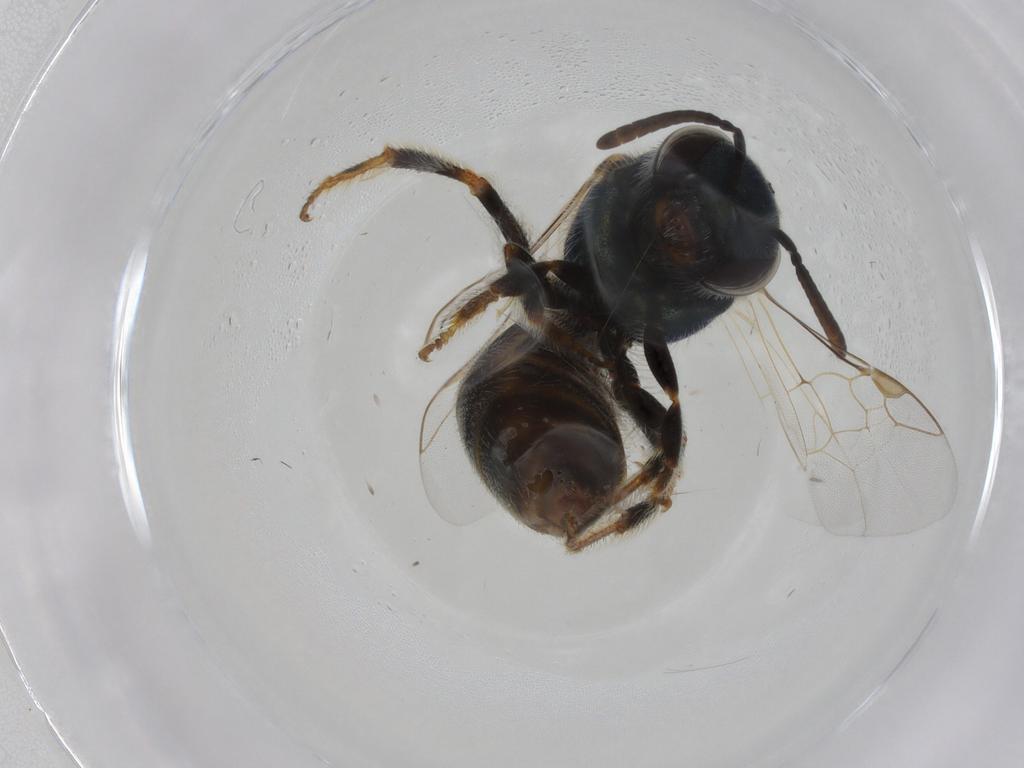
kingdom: Animalia
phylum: Arthropoda
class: Insecta
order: Hymenoptera
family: Halictidae
